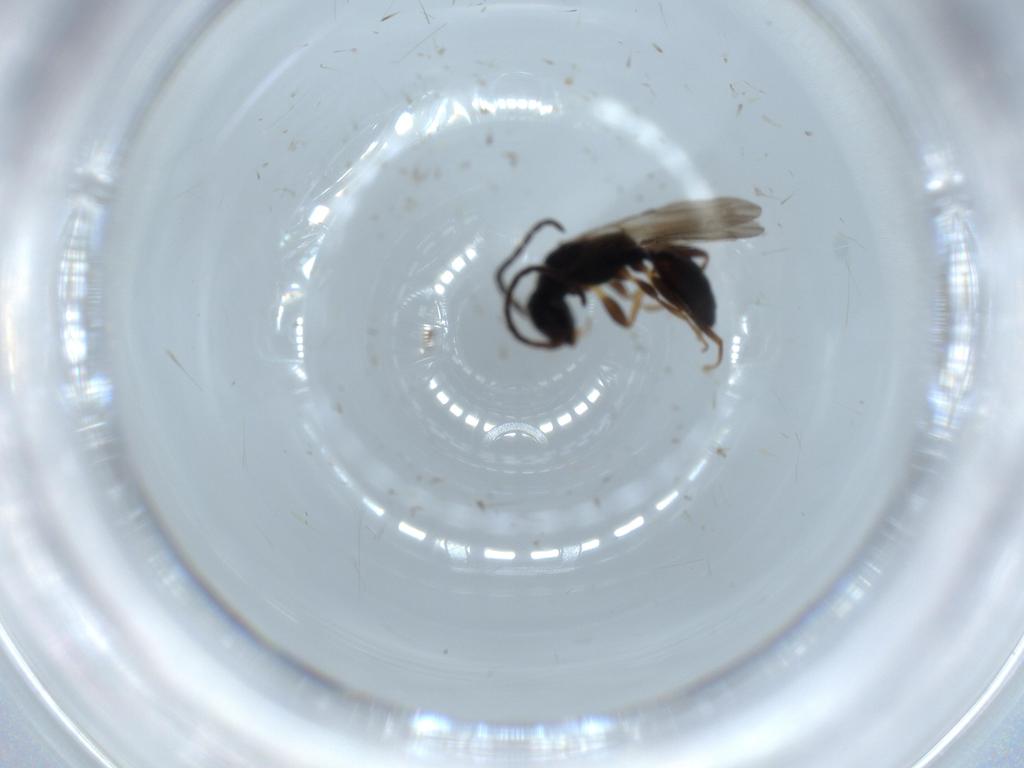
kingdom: Animalia
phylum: Arthropoda
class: Insecta
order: Hymenoptera
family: Bethylidae
